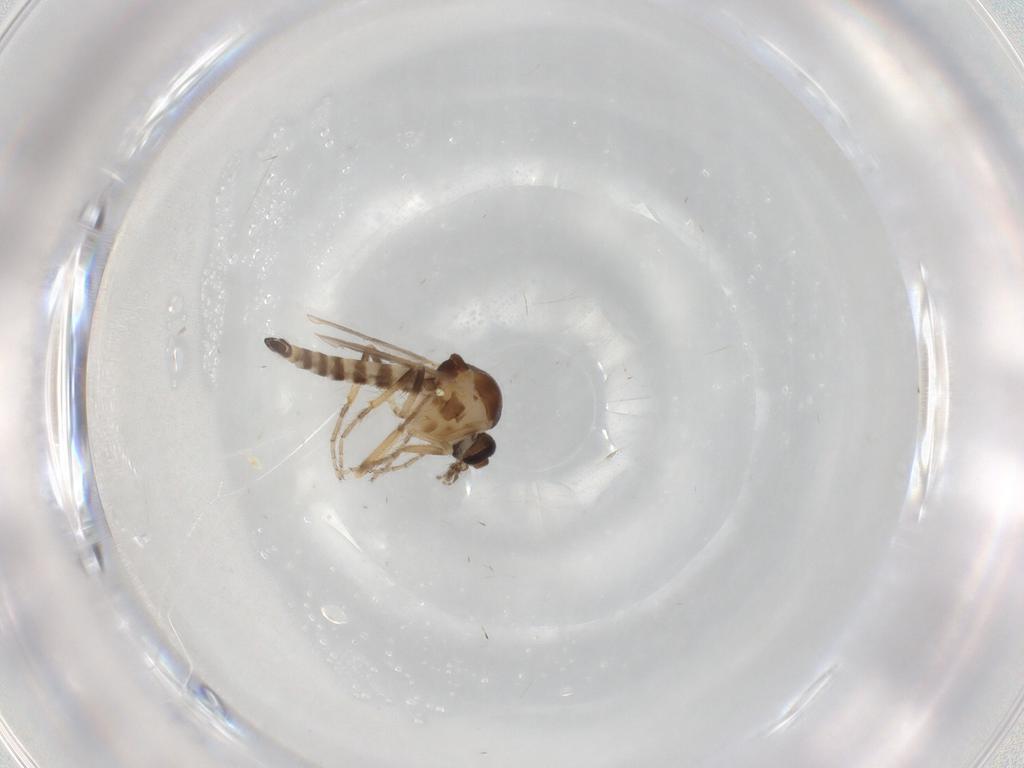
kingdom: Animalia
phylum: Arthropoda
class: Insecta
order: Diptera
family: Ceratopogonidae
